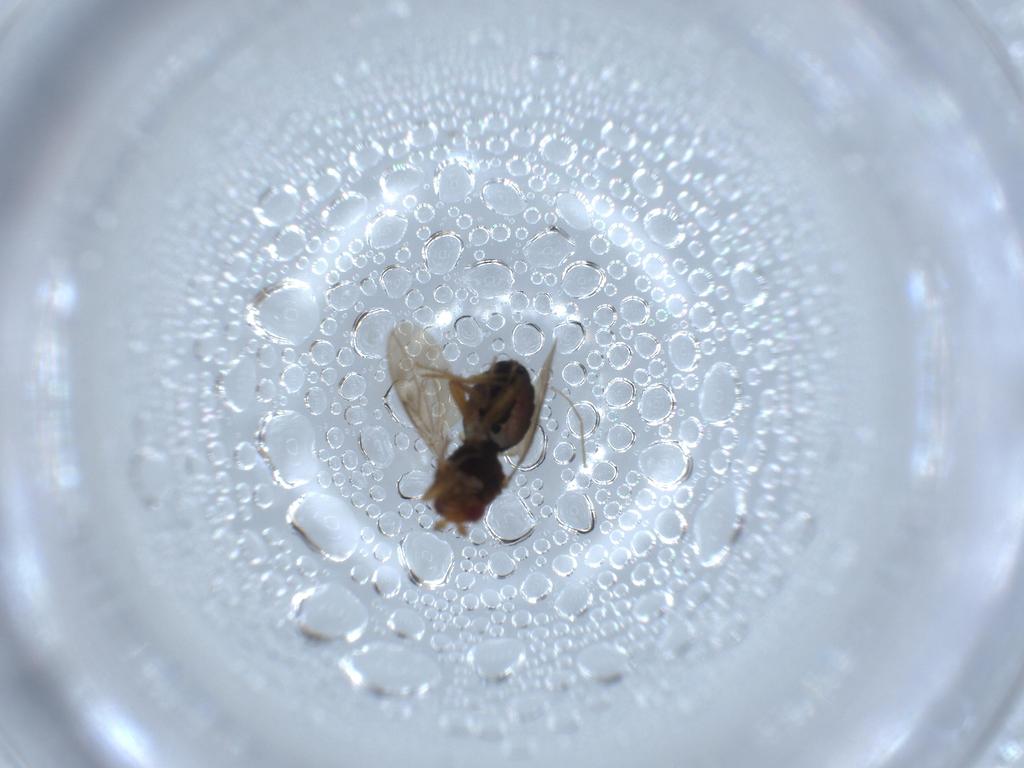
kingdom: Animalia
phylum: Arthropoda
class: Insecta
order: Diptera
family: Sphaeroceridae
